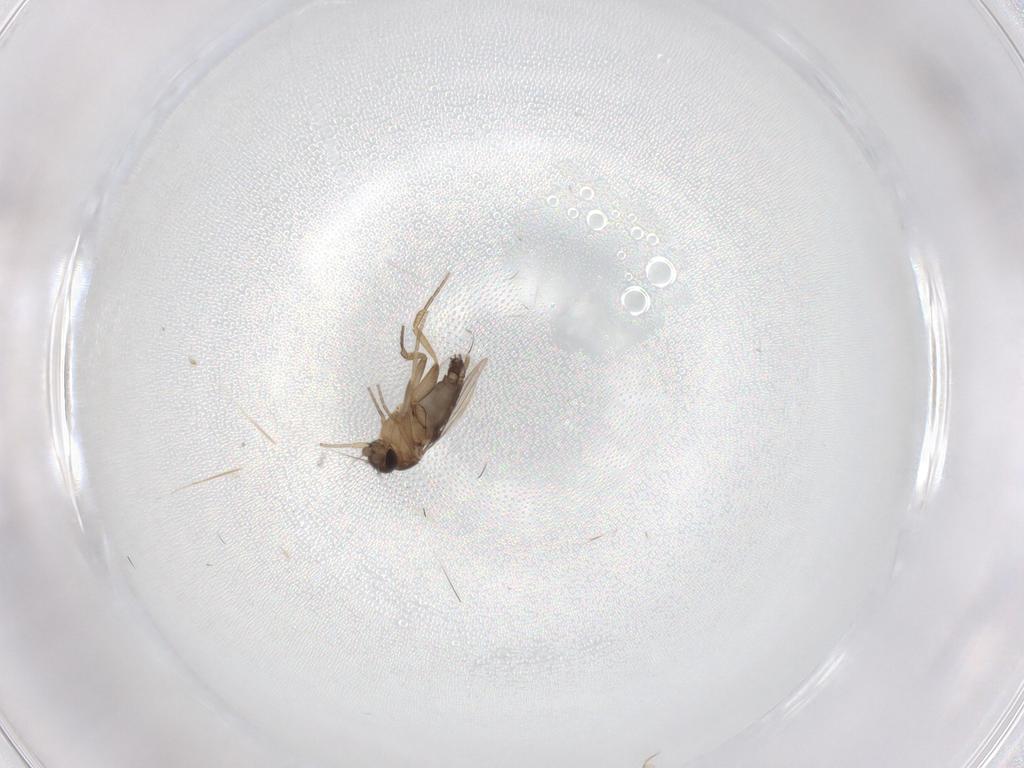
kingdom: Animalia
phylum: Arthropoda
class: Insecta
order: Diptera
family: Phoridae
